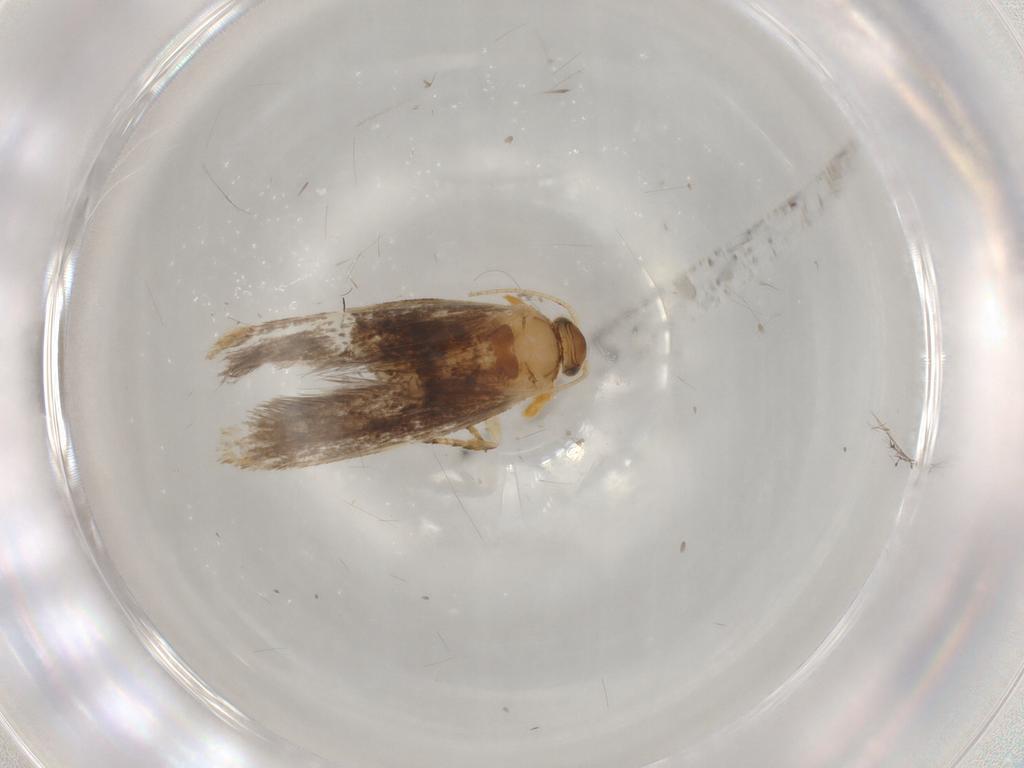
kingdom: Animalia
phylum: Arthropoda
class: Insecta
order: Lepidoptera
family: Dryadaulidae
